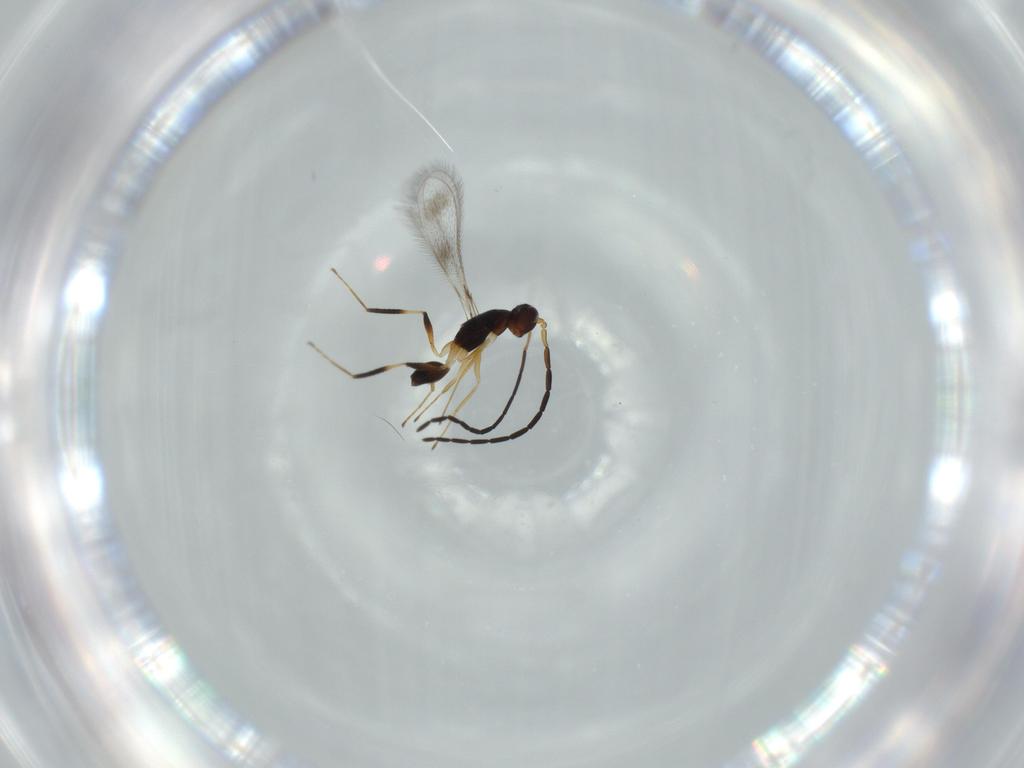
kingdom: Animalia
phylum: Arthropoda
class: Insecta
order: Hymenoptera
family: Mymaridae
